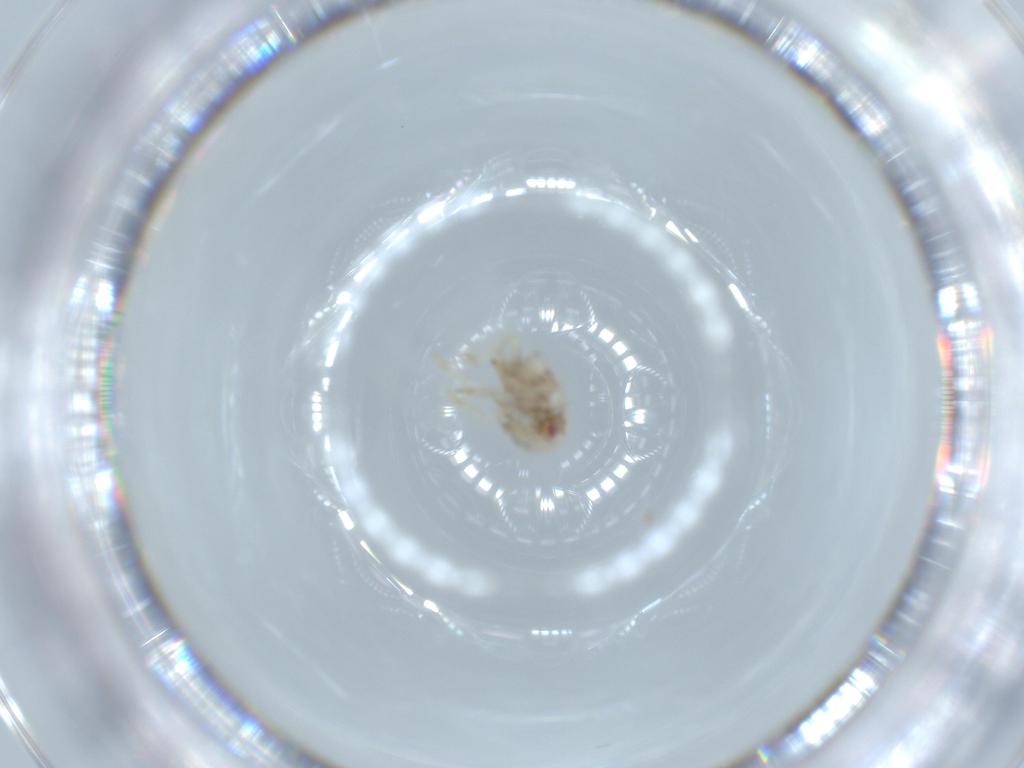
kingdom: Animalia
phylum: Arthropoda
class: Insecta
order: Hemiptera
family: Acanaloniidae
